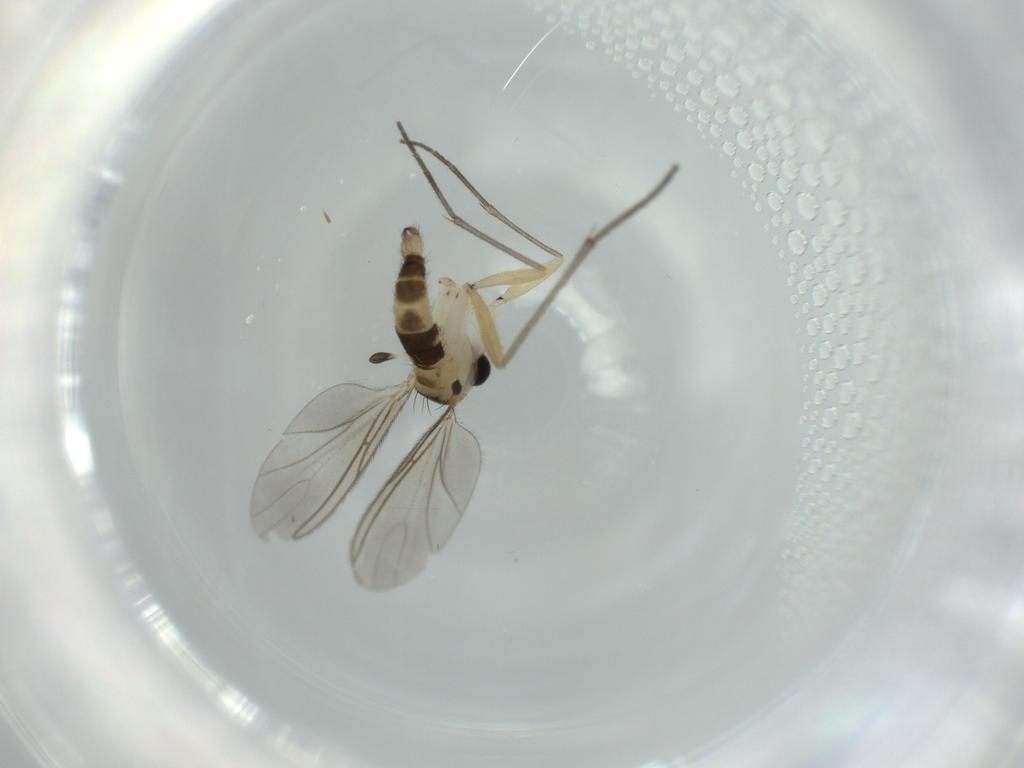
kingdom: Animalia
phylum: Arthropoda
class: Insecta
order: Diptera
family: Sciaridae
